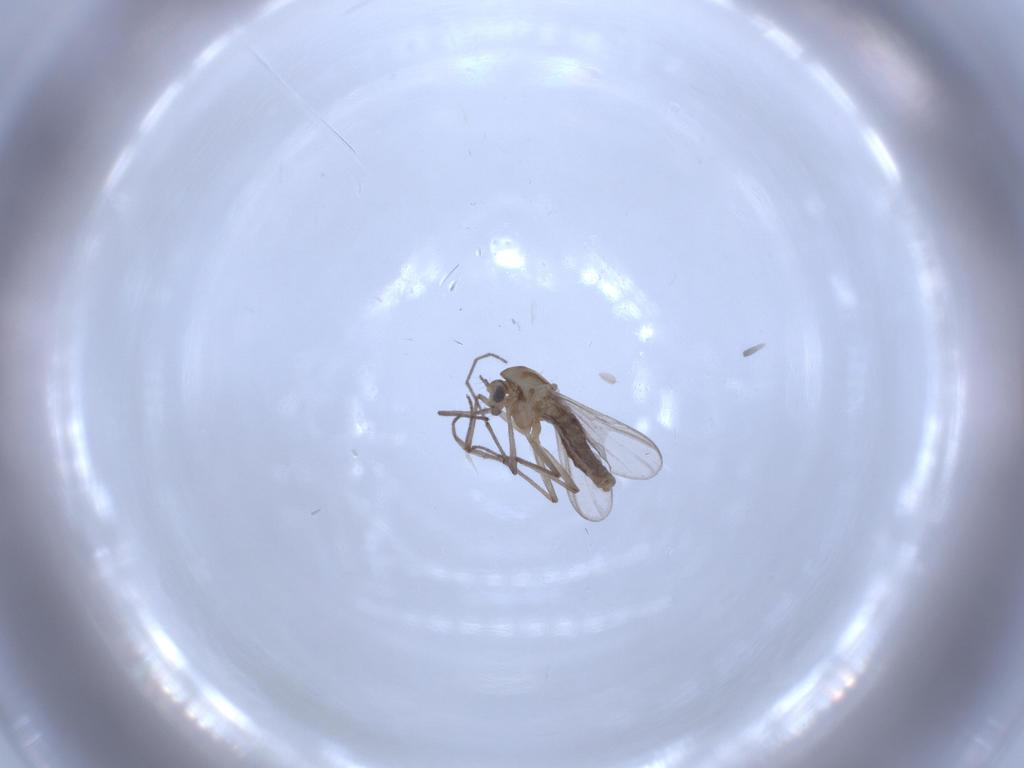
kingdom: Animalia
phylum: Arthropoda
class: Insecta
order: Diptera
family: Chironomidae
